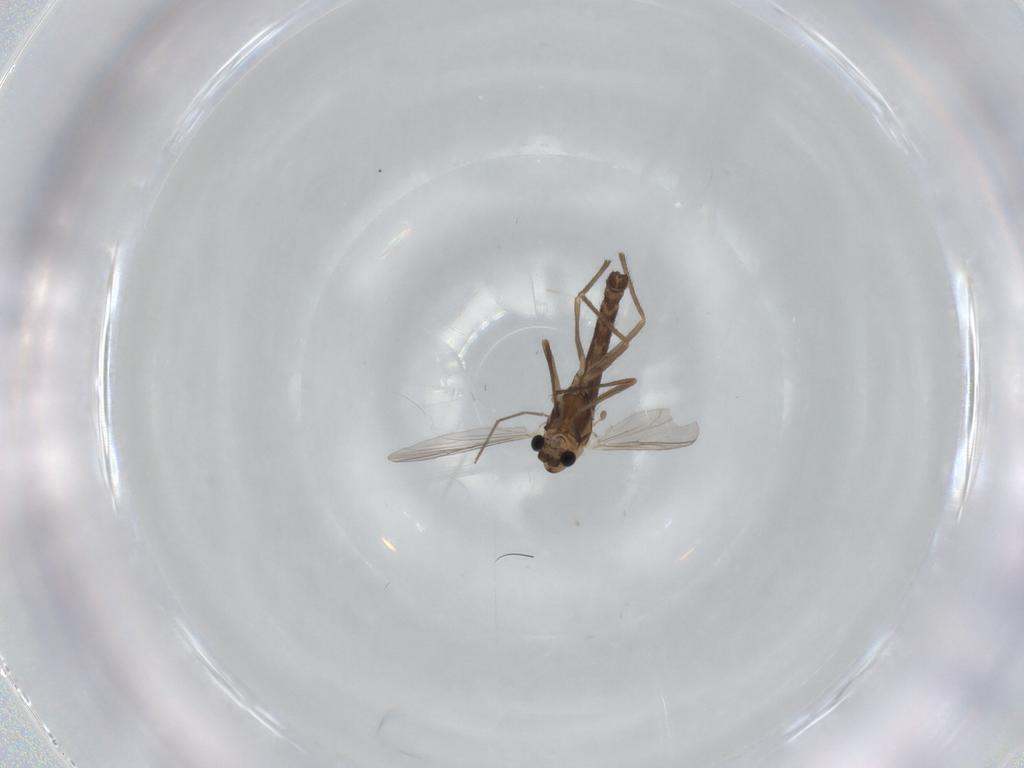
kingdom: Animalia
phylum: Arthropoda
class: Insecta
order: Diptera
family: Chironomidae
